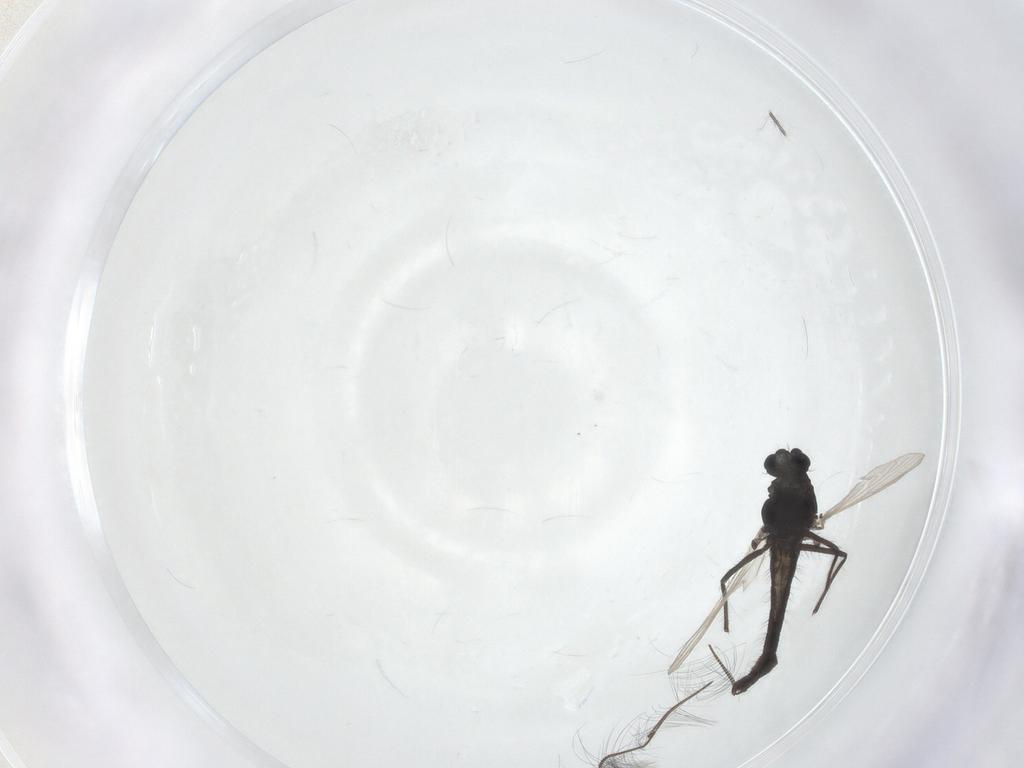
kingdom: Animalia
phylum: Arthropoda
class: Insecta
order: Diptera
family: Anthomyiidae
